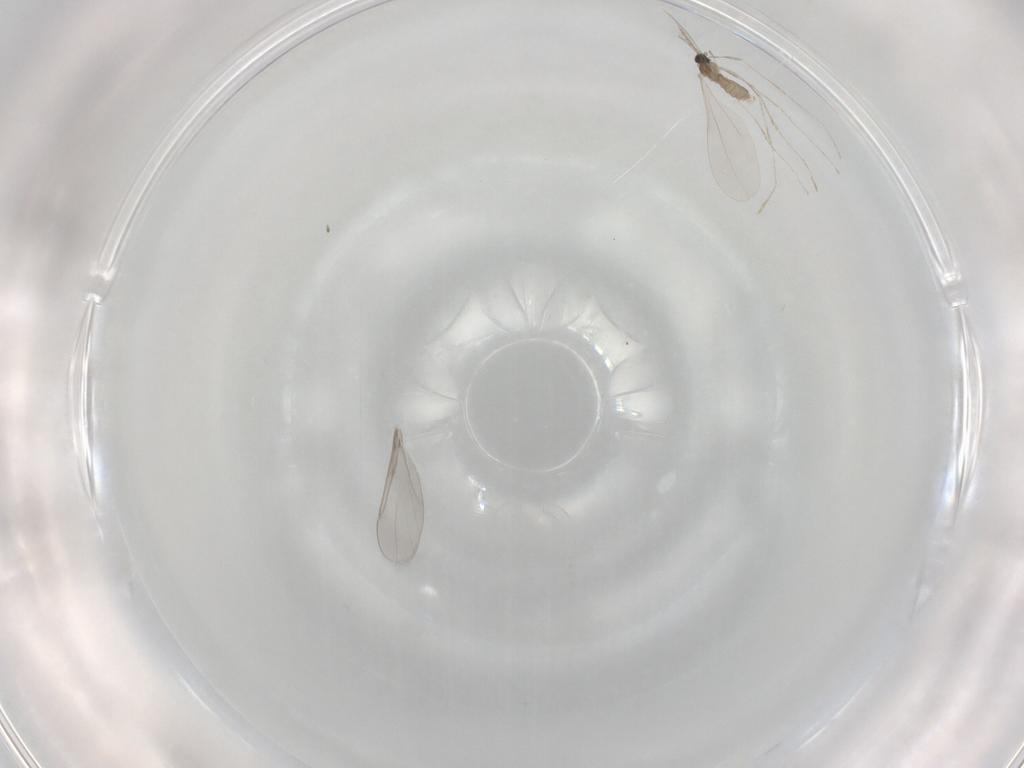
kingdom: Animalia
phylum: Arthropoda
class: Insecta
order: Diptera
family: Cecidomyiidae
